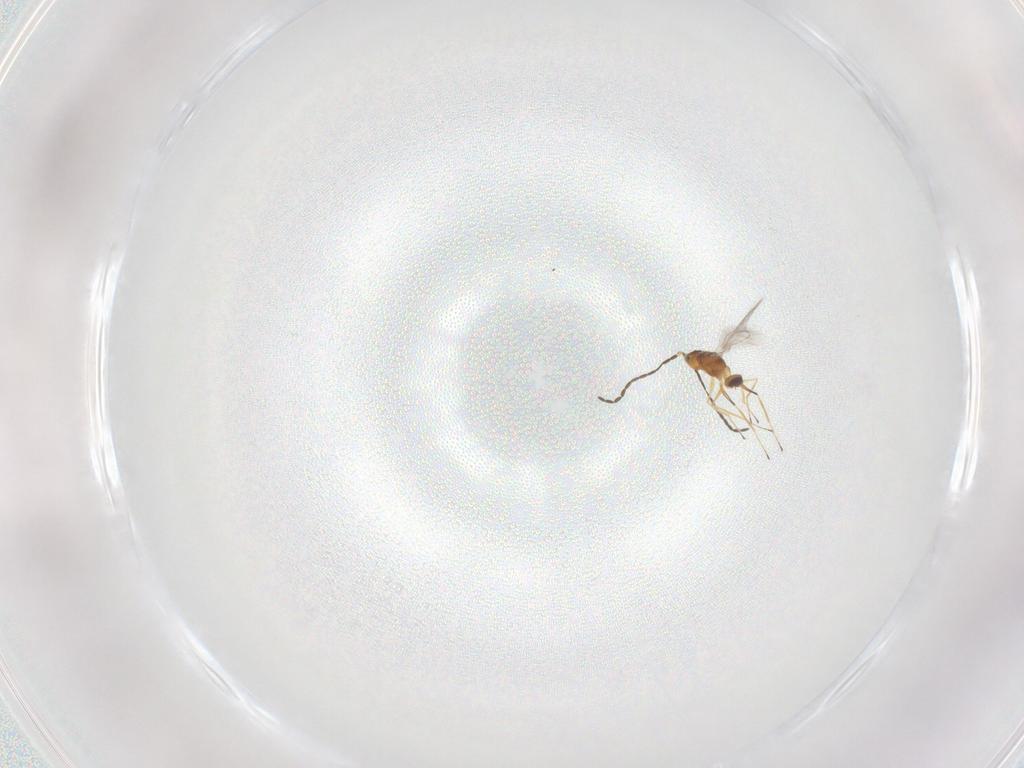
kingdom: Animalia
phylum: Arthropoda
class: Insecta
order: Hymenoptera
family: Mymaridae
